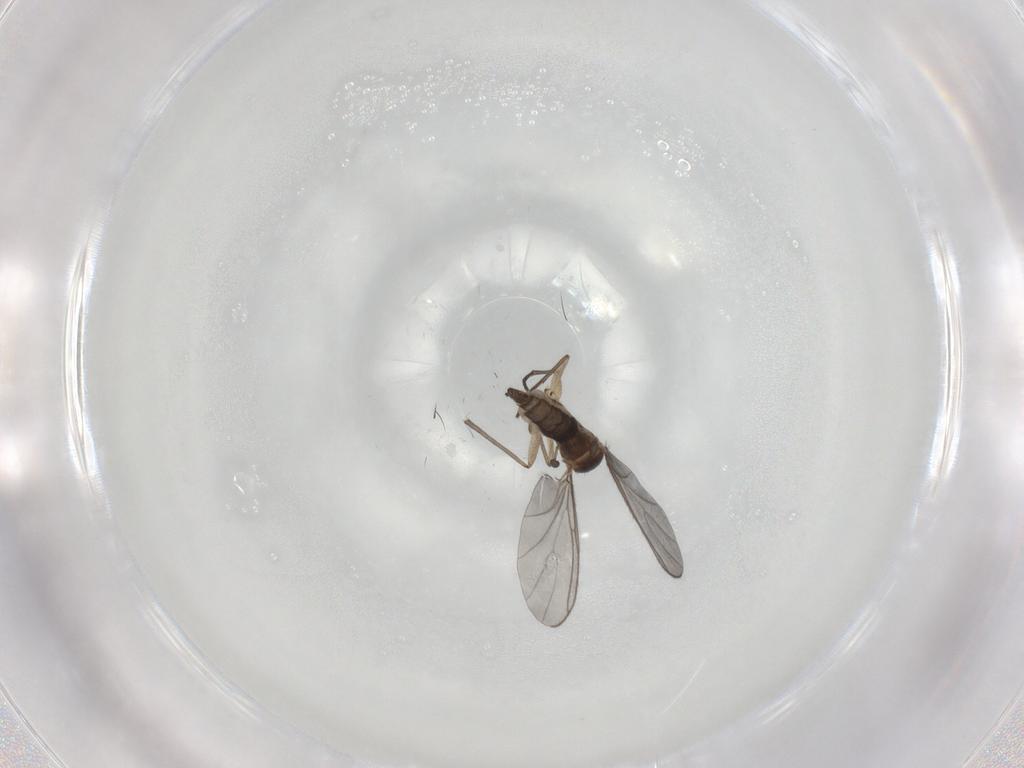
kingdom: Animalia
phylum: Arthropoda
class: Insecta
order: Diptera
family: Sciaridae
